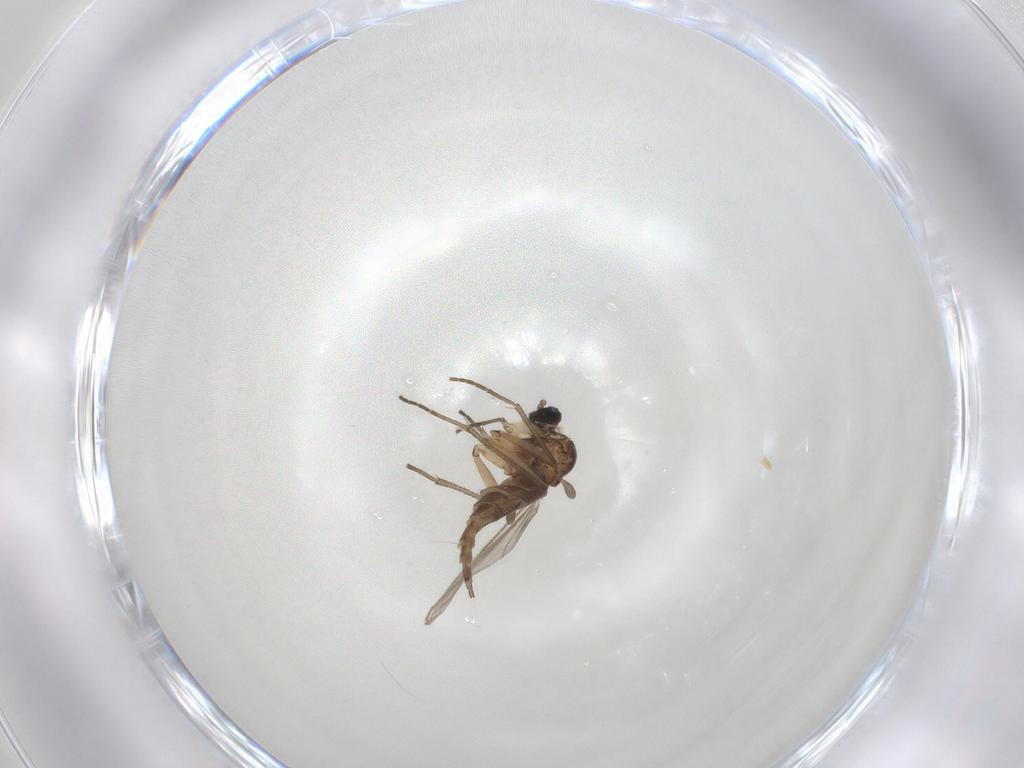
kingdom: Animalia
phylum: Arthropoda
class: Insecta
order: Diptera
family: Sciaridae
